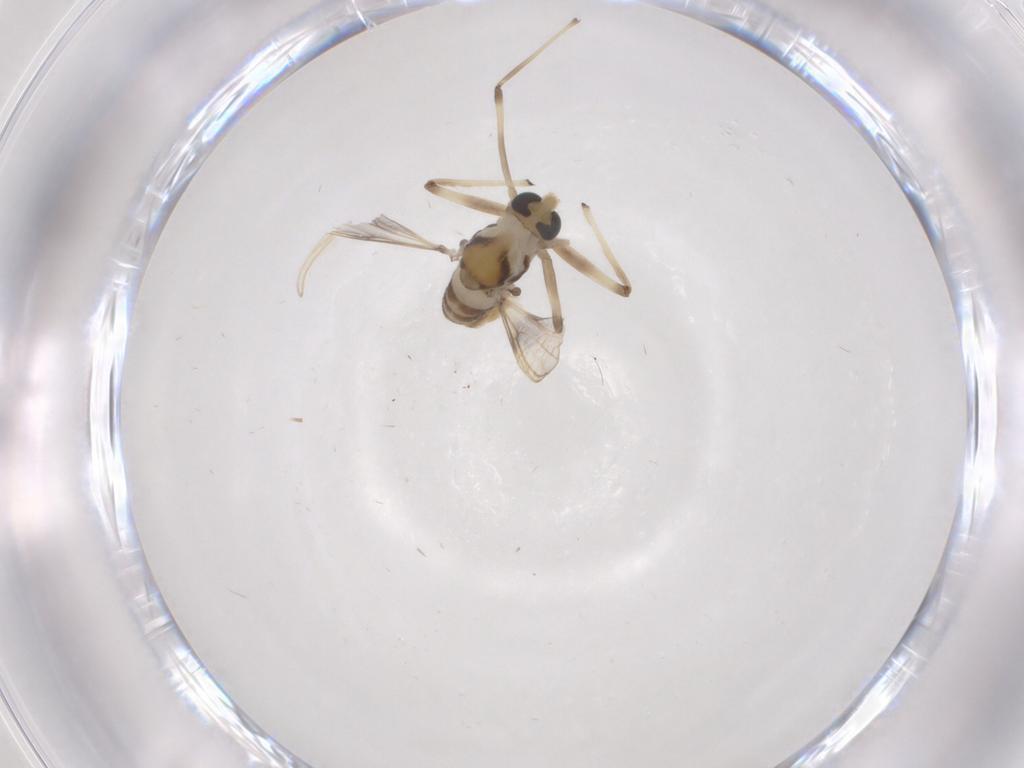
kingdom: Animalia
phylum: Arthropoda
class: Insecta
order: Diptera
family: Chironomidae
